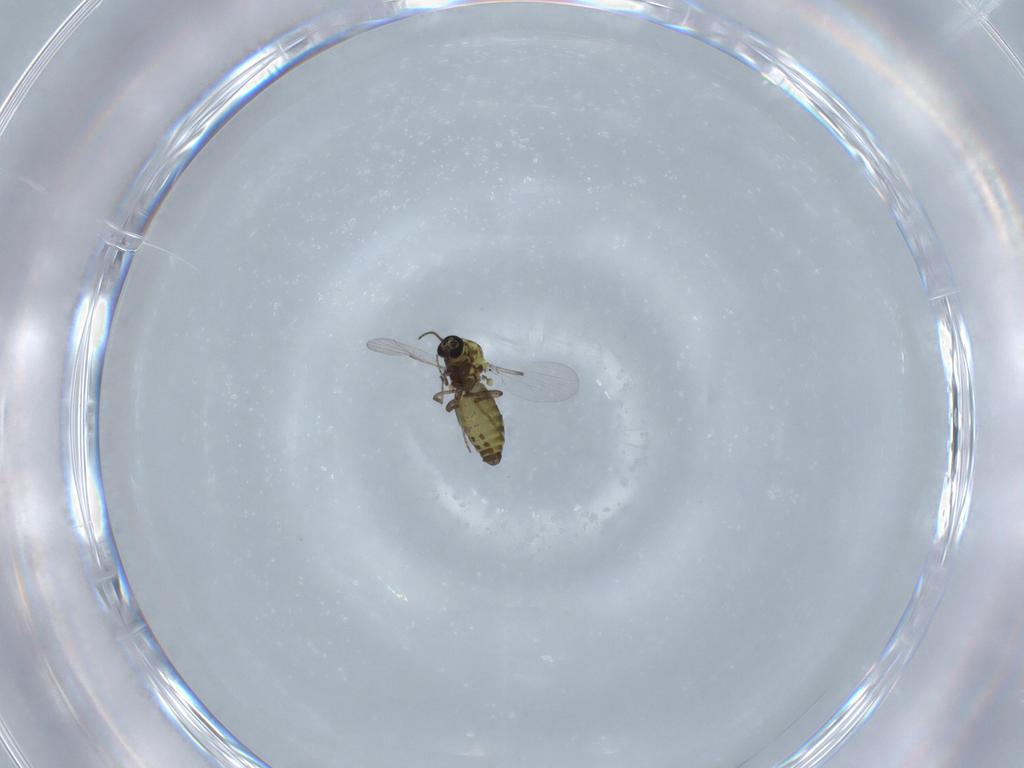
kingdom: Animalia
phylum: Arthropoda
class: Insecta
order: Diptera
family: Ceratopogonidae
